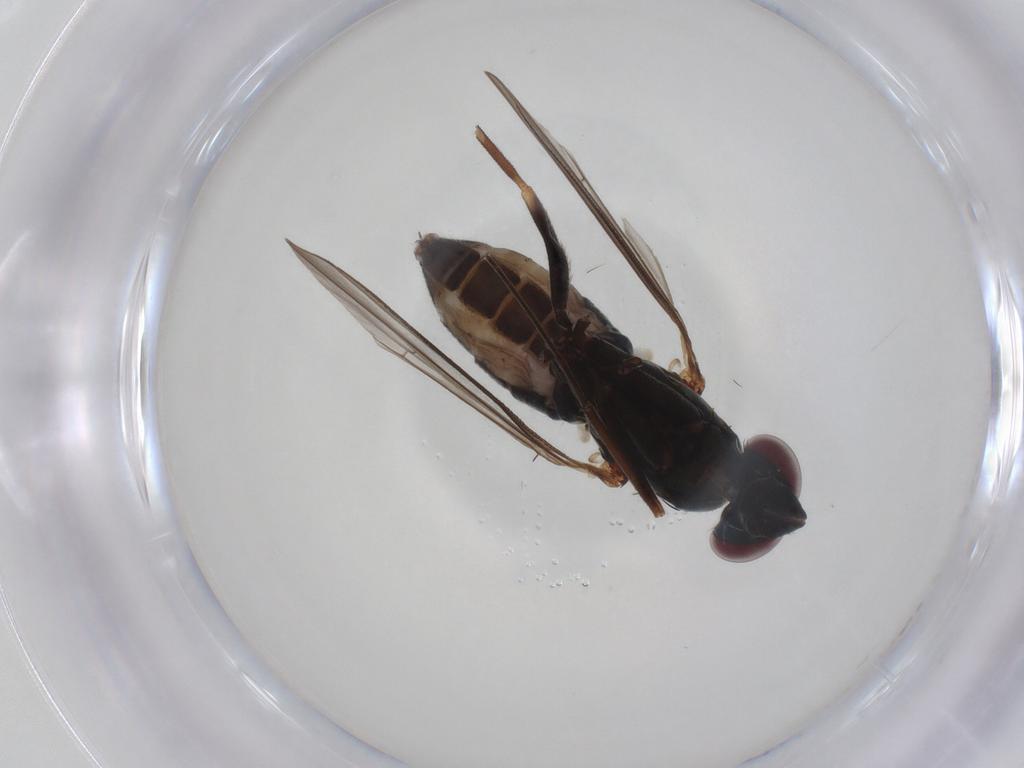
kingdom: Animalia
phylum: Arthropoda
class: Insecta
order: Diptera
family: Dolichopodidae
